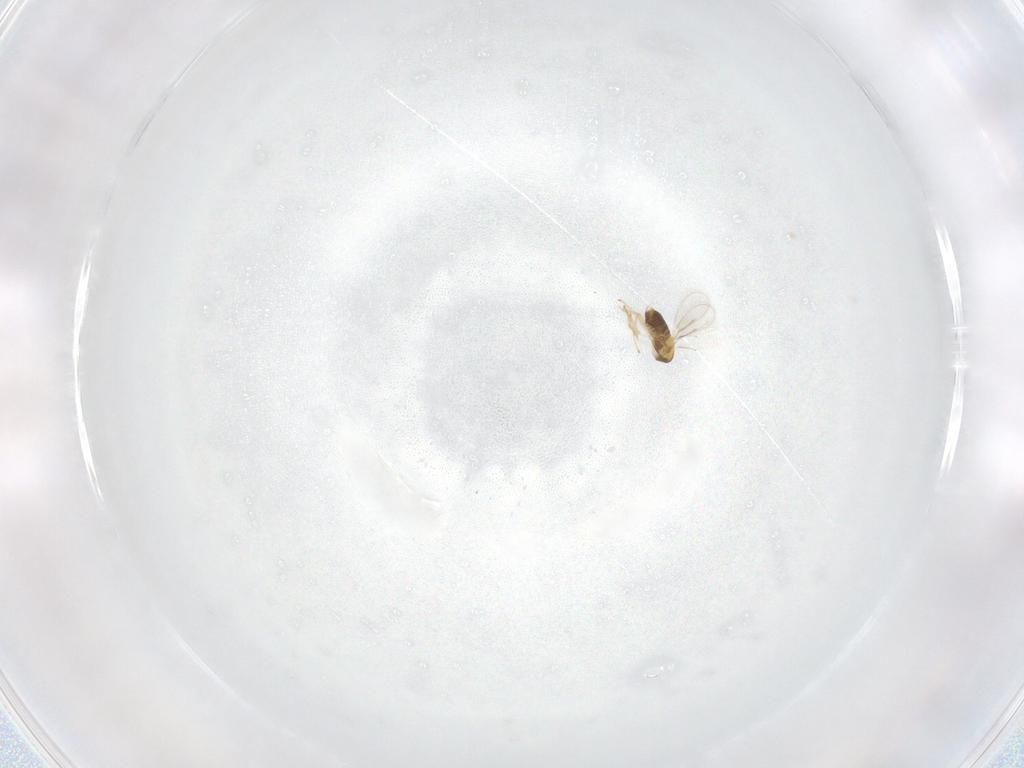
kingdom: Animalia
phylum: Arthropoda
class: Insecta
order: Hymenoptera
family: Aphelinidae
